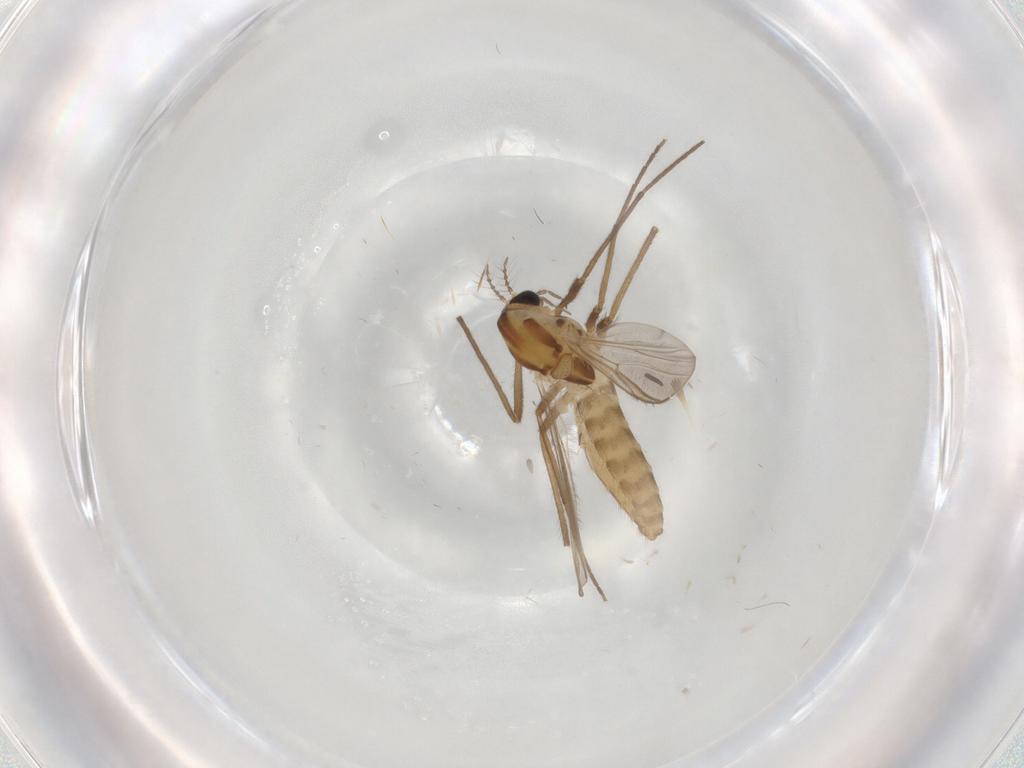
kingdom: Animalia
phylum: Arthropoda
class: Insecta
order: Diptera
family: Chironomidae
